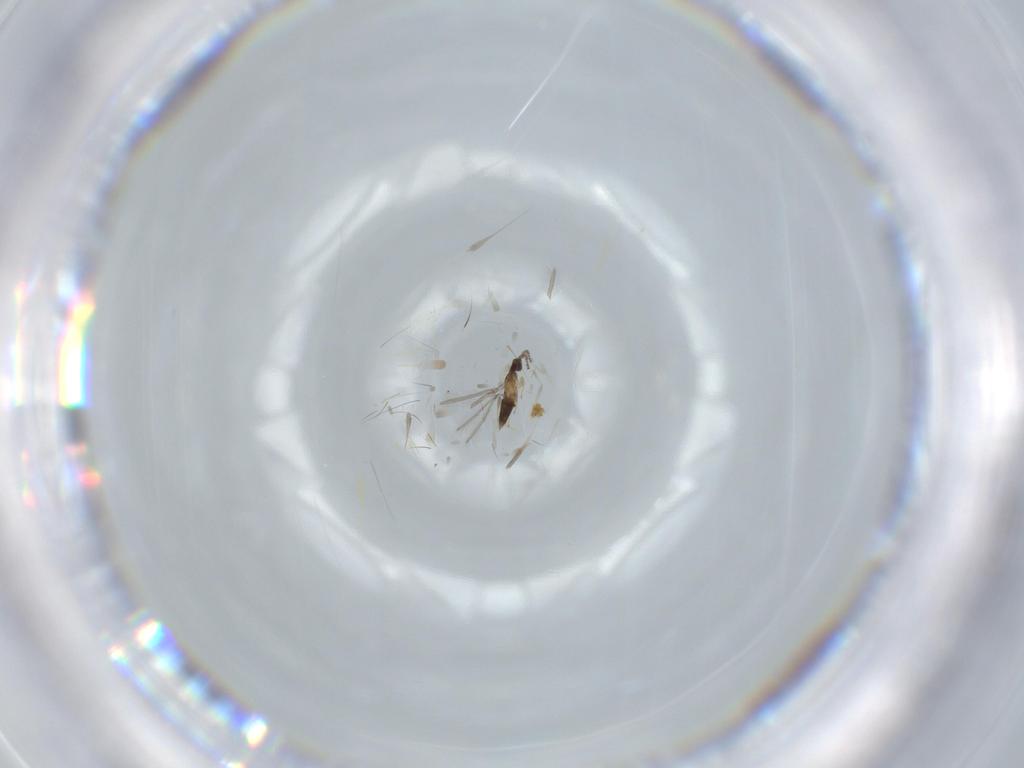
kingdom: Animalia
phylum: Arthropoda
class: Insecta
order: Hymenoptera
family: Mymaridae
